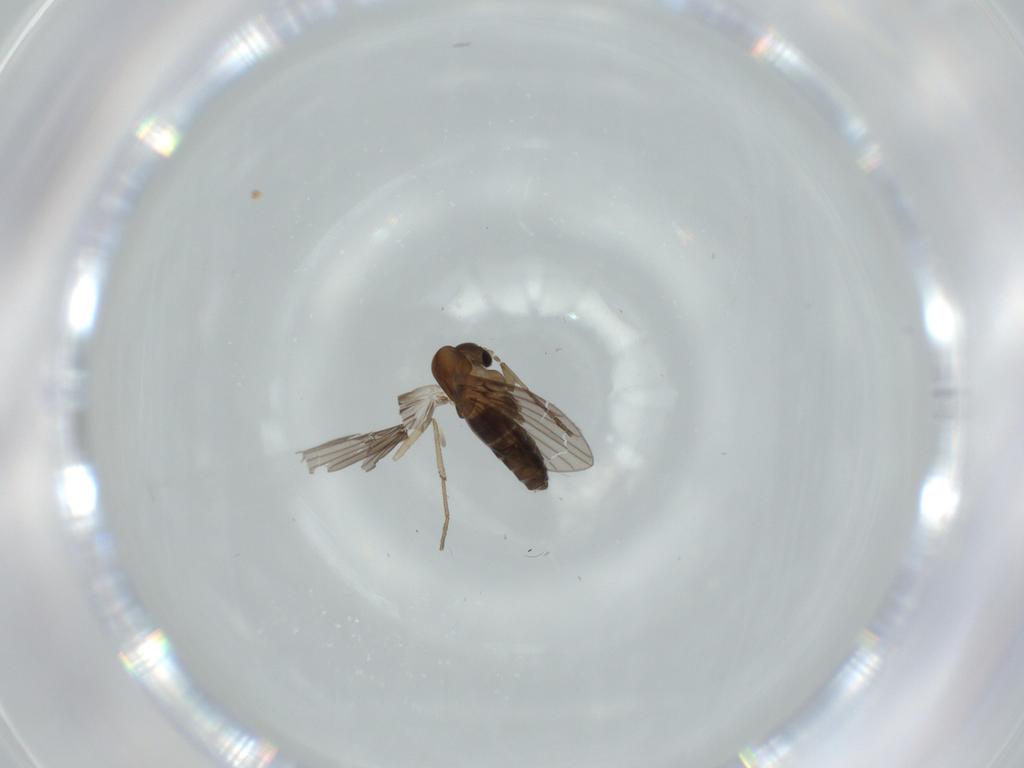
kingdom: Animalia
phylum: Arthropoda
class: Insecta
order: Diptera
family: Psychodidae
